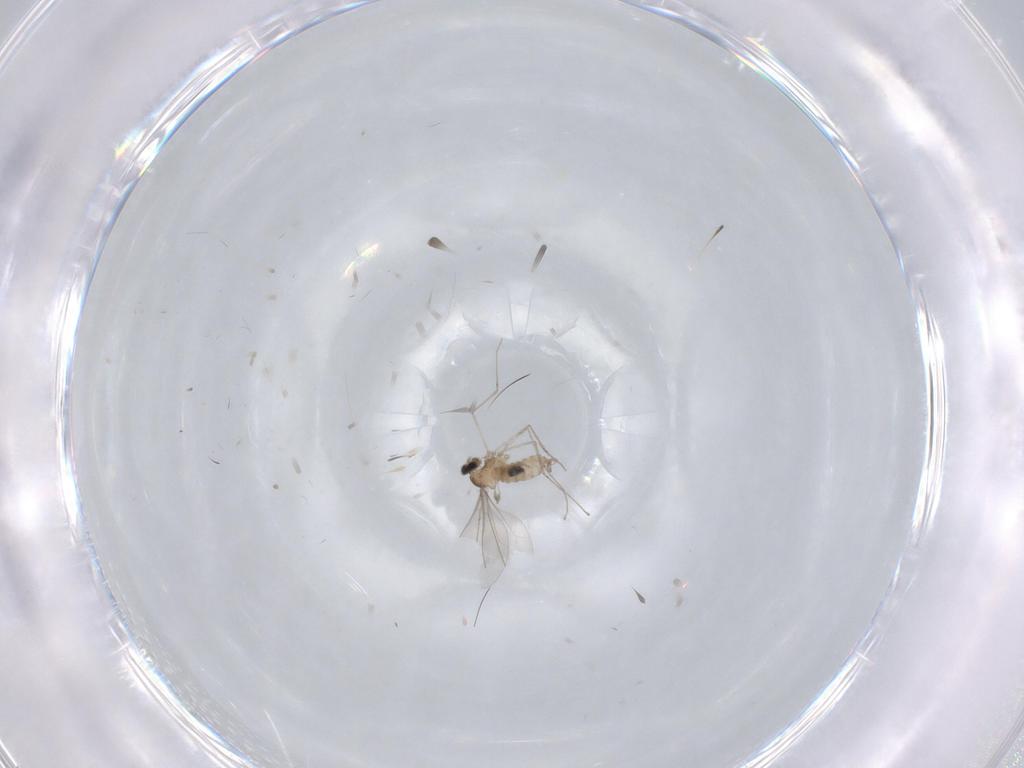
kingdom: Animalia
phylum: Arthropoda
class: Insecta
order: Diptera
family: Cecidomyiidae
